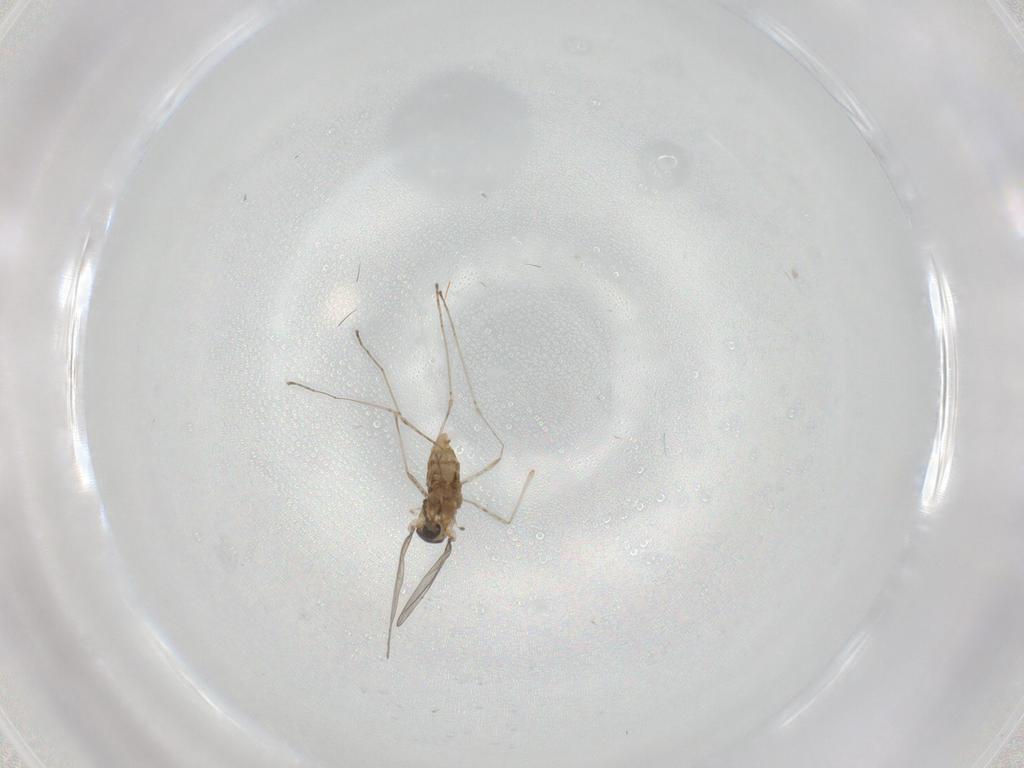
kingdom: Animalia
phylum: Arthropoda
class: Insecta
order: Diptera
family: Cecidomyiidae
